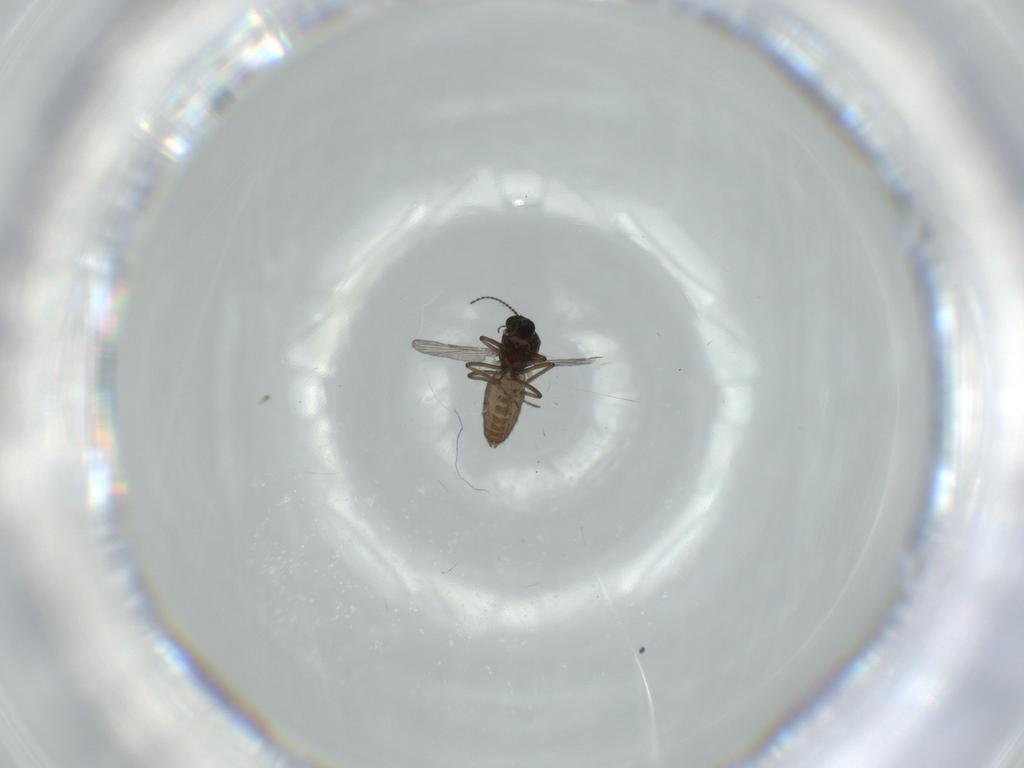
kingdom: Animalia
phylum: Arthropoda
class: Insecta
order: Diptera
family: Ceratopogonidae
